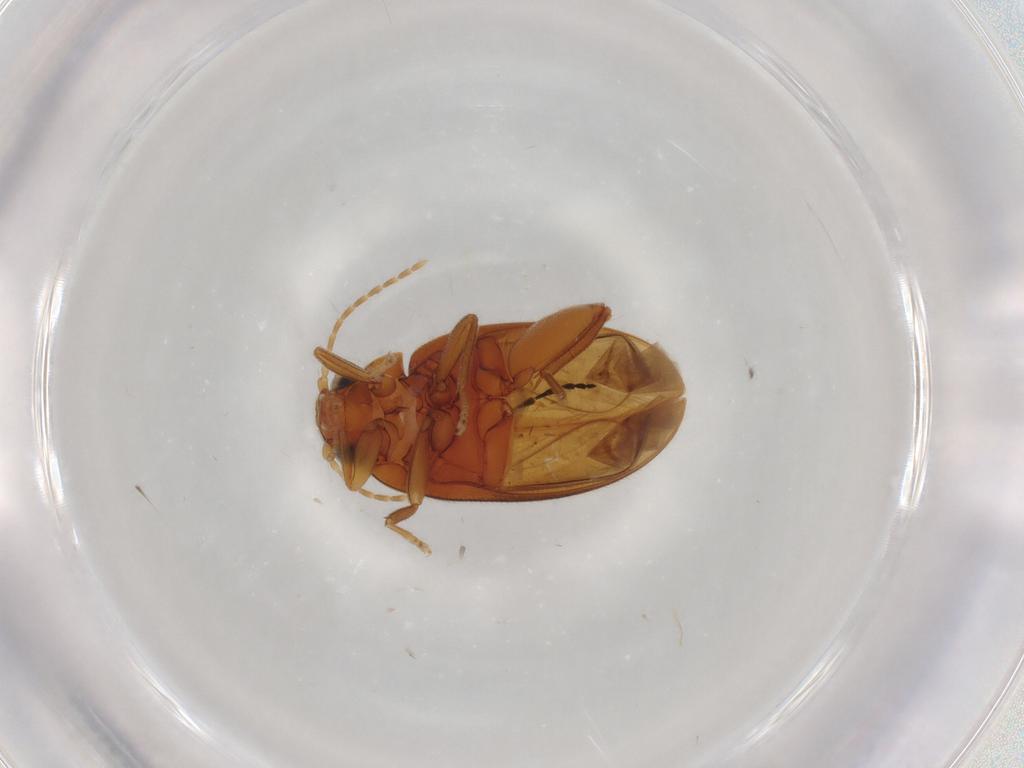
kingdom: Animalia
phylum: Arthropoda
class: Insecta
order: Coleoptera
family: Scirtidae
